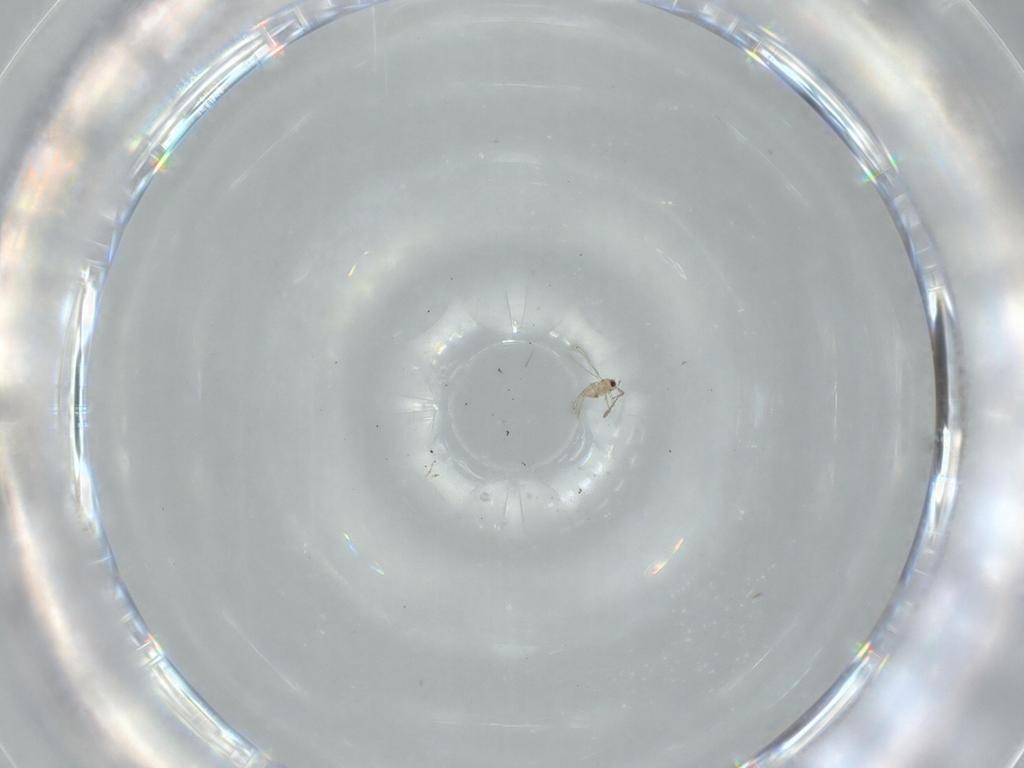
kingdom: Animalia
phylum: Arthropoda
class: Insecta
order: Hymenoptera
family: Mymaridae
